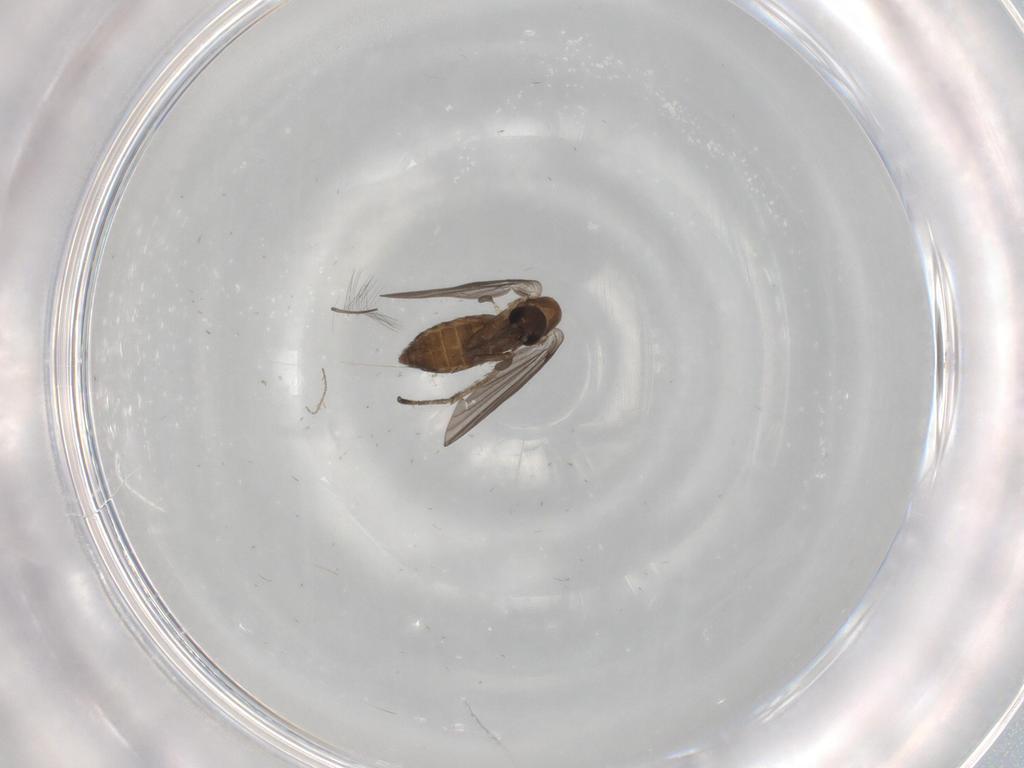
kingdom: Animalia
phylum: Arthropoda
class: Insecta
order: Diptera
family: Psychodidae
